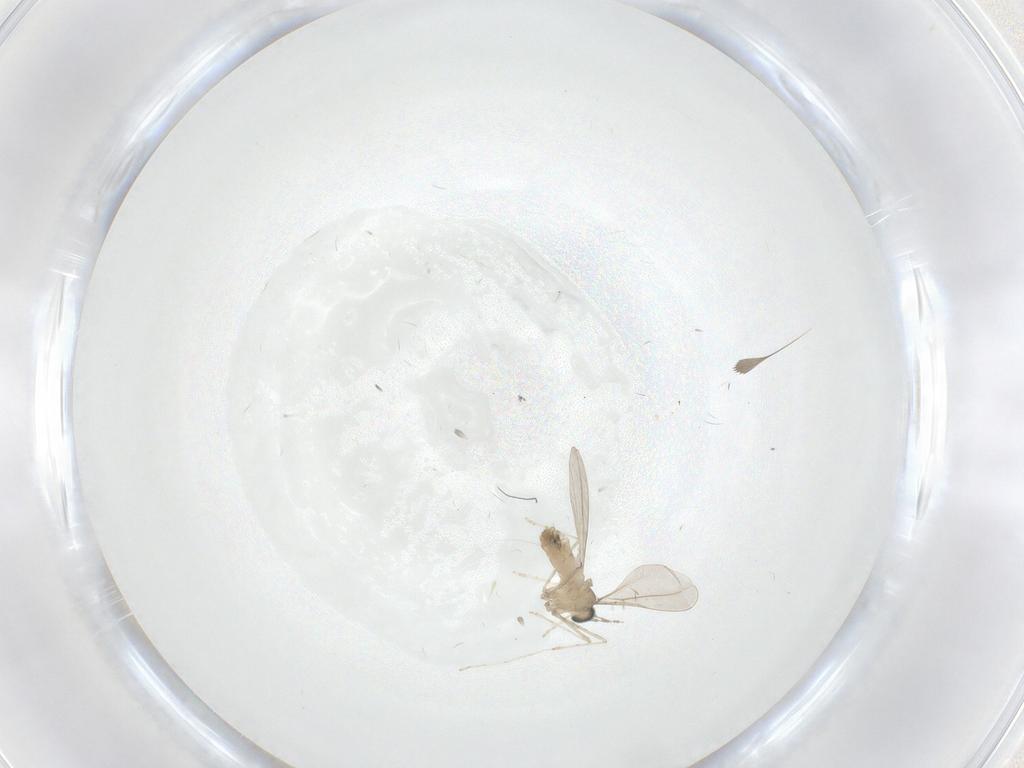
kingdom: Animalia
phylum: Arthropoda
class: Insecta
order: Diptera
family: Cecidomyiidae
